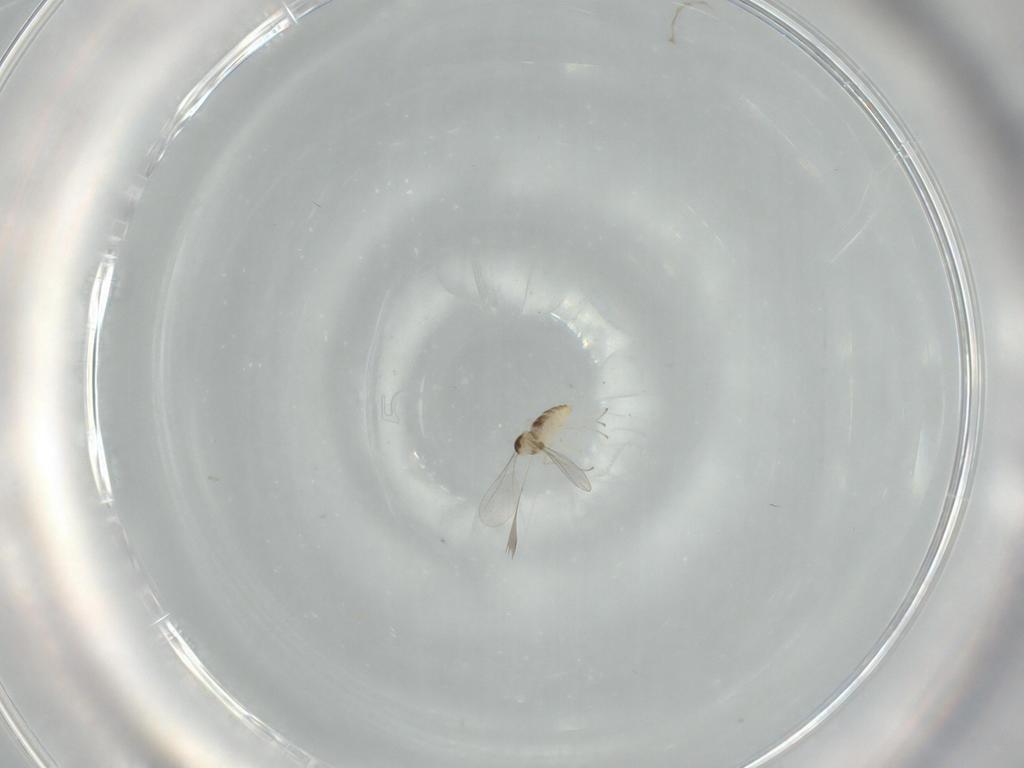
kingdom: Animalia
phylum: Arthropoda
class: Insecta
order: Diptera
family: Cecidomyiidae
